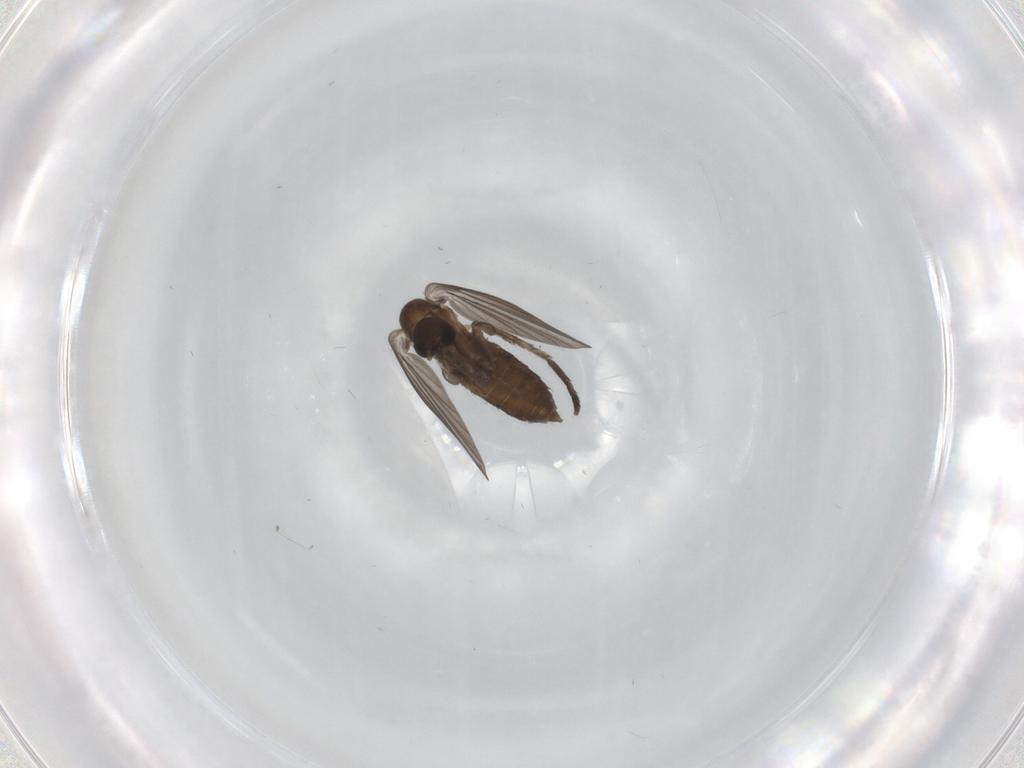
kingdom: Animalia
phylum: Arthropoda
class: Insecta
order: Diptera
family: Psychodidae
